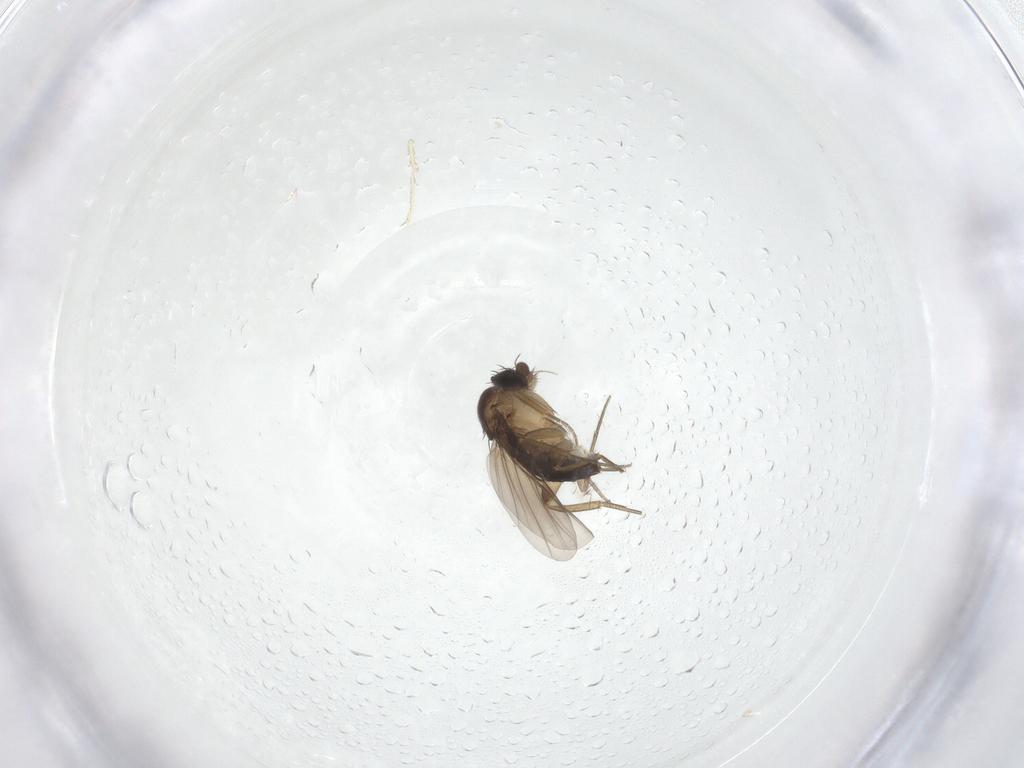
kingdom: Animalia
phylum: Arthropoda
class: Insecta
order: Diptera
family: Phoridae
